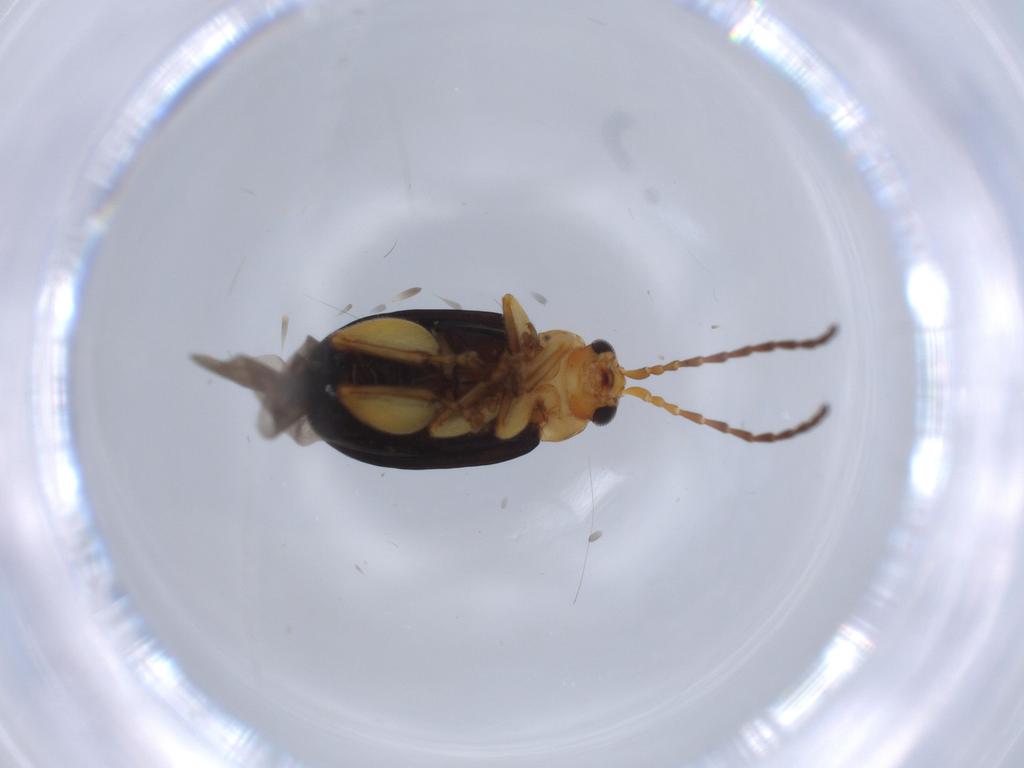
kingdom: Animalia
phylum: Arthropoda
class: Insecta
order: Coleoptera
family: Chrysomelidae
